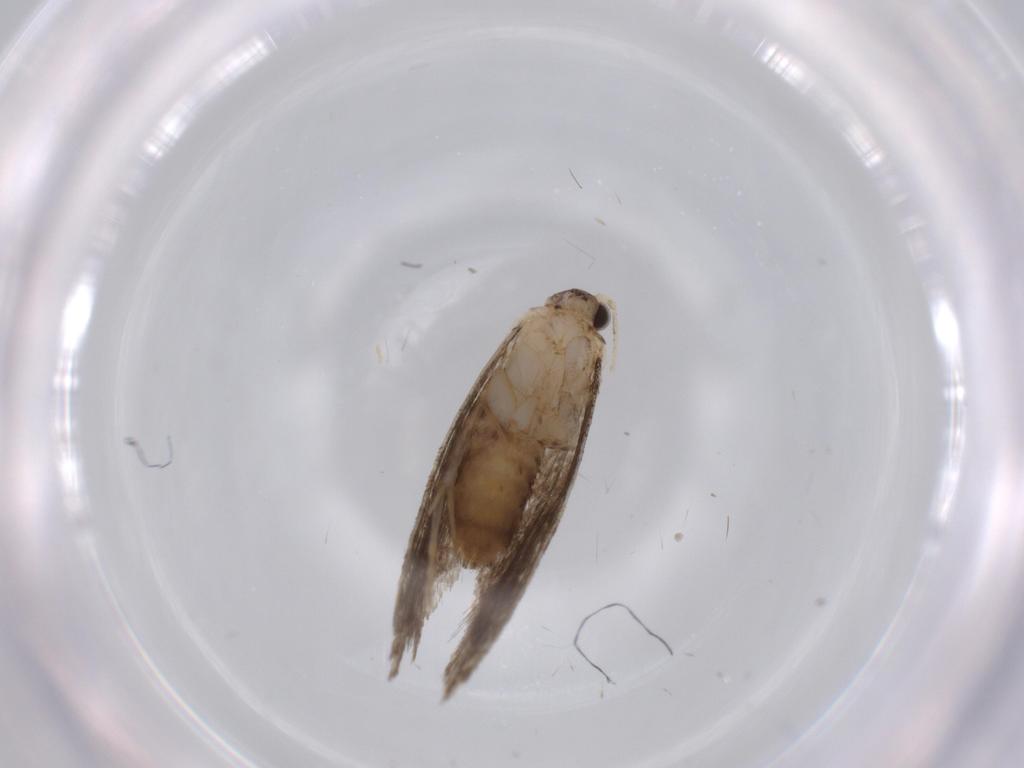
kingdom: Animalia
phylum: Arthropoda
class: Insecta
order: Lepidoptera
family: Tineidae
